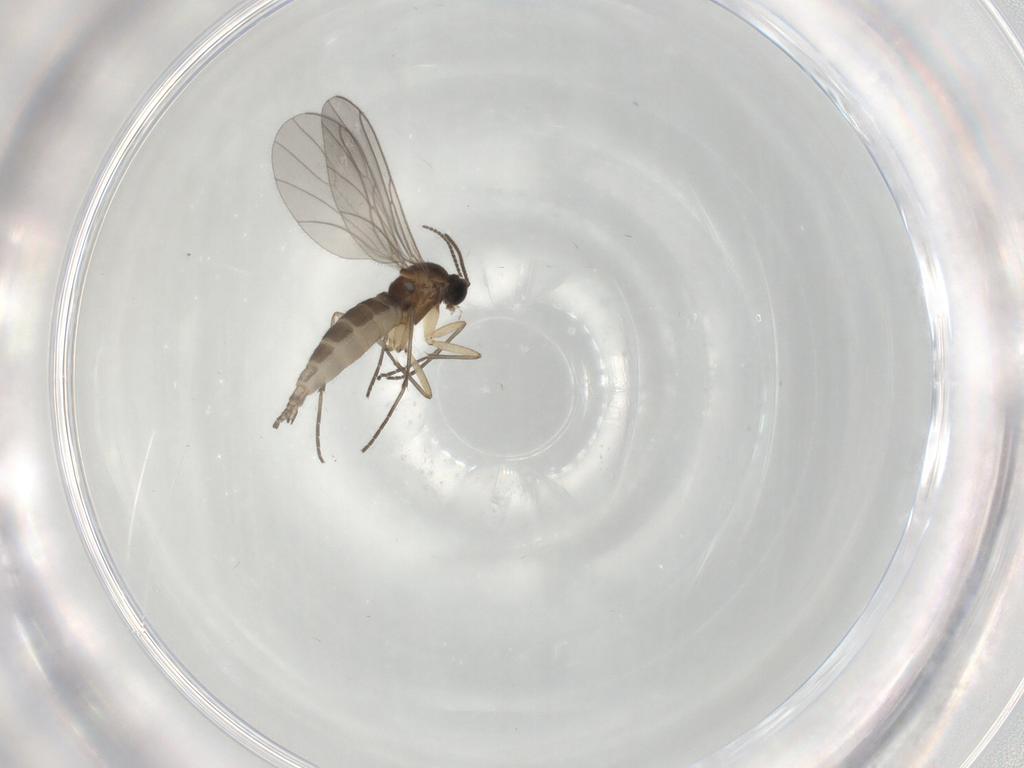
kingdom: Animalia
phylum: Arthropoda
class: Insecta
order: Diptera
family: Sciaridae
